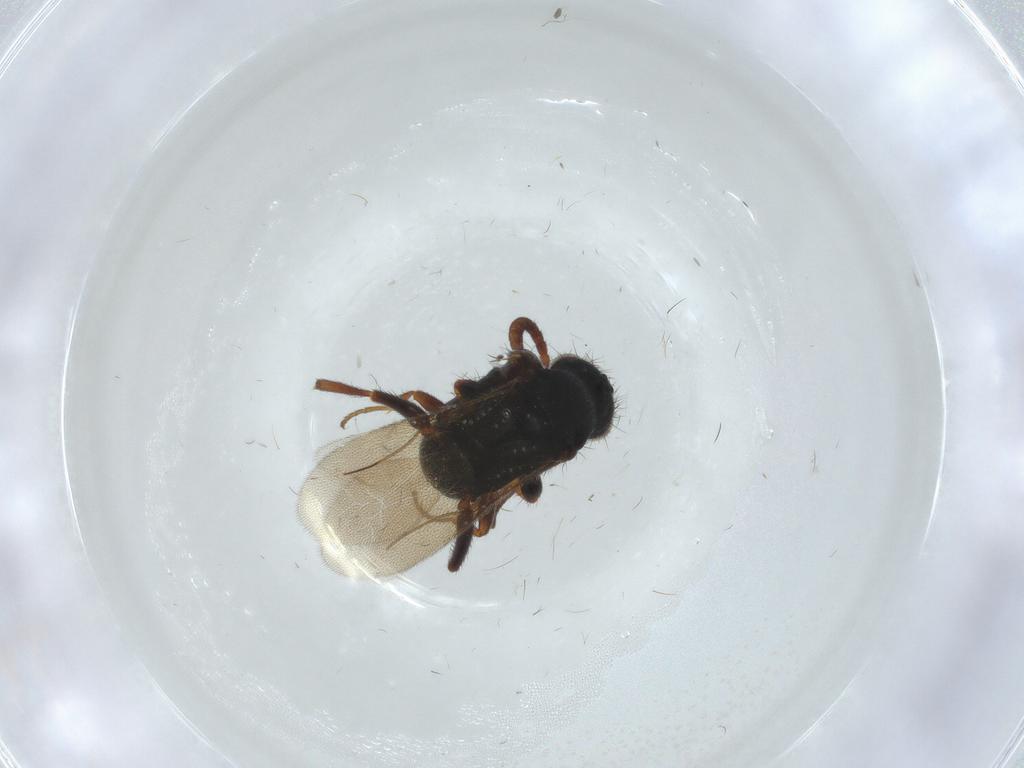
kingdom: Animalia
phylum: Arthropoda
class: Insecta
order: Hymenoptera
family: Bethylidae
